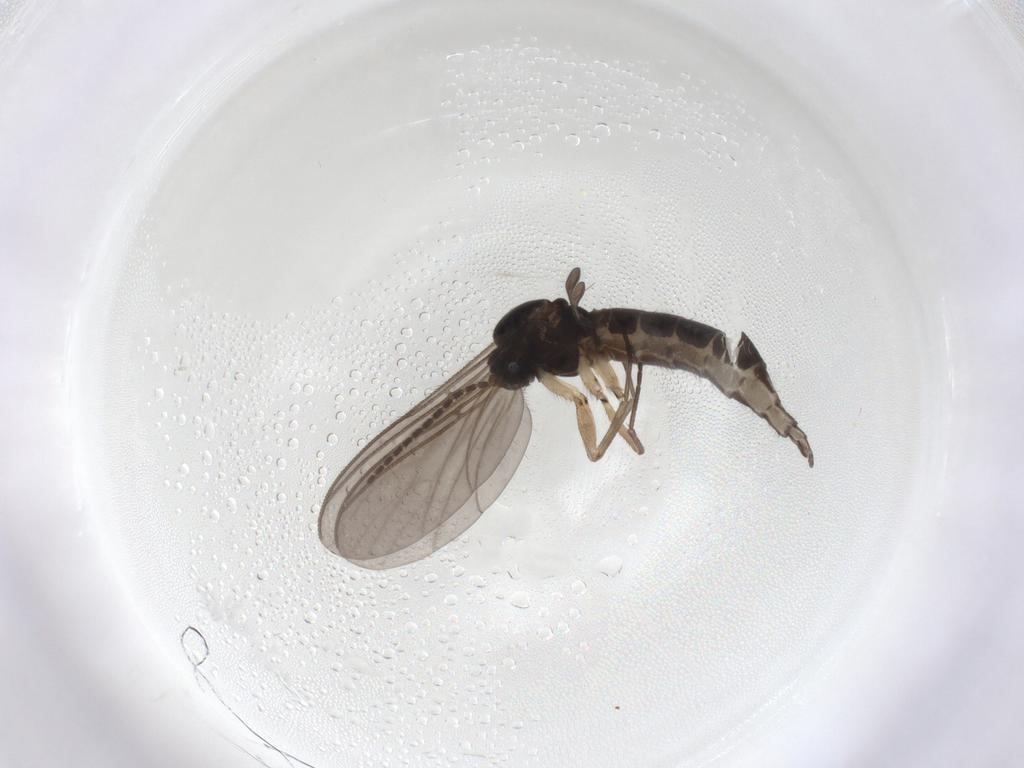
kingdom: Animalia
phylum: Arthropoda
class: Insecta
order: Diptera
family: Sciaridae
